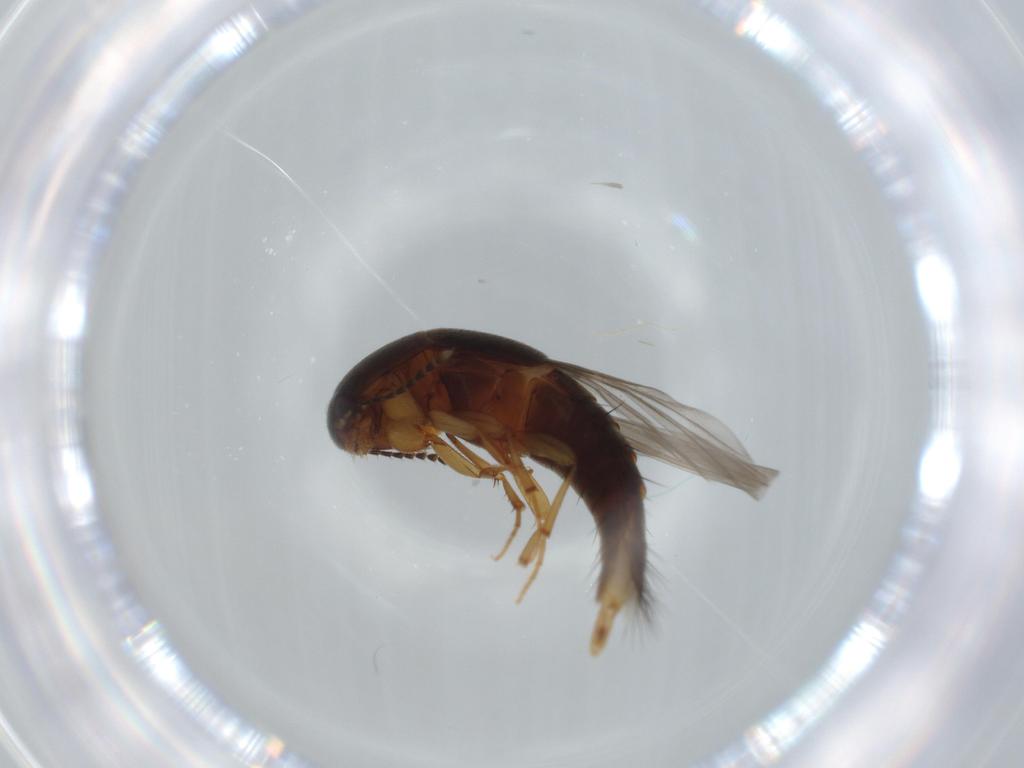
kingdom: Animalia
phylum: Arthropoda
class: Insecta
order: Coleoptera
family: Staphylinidae
